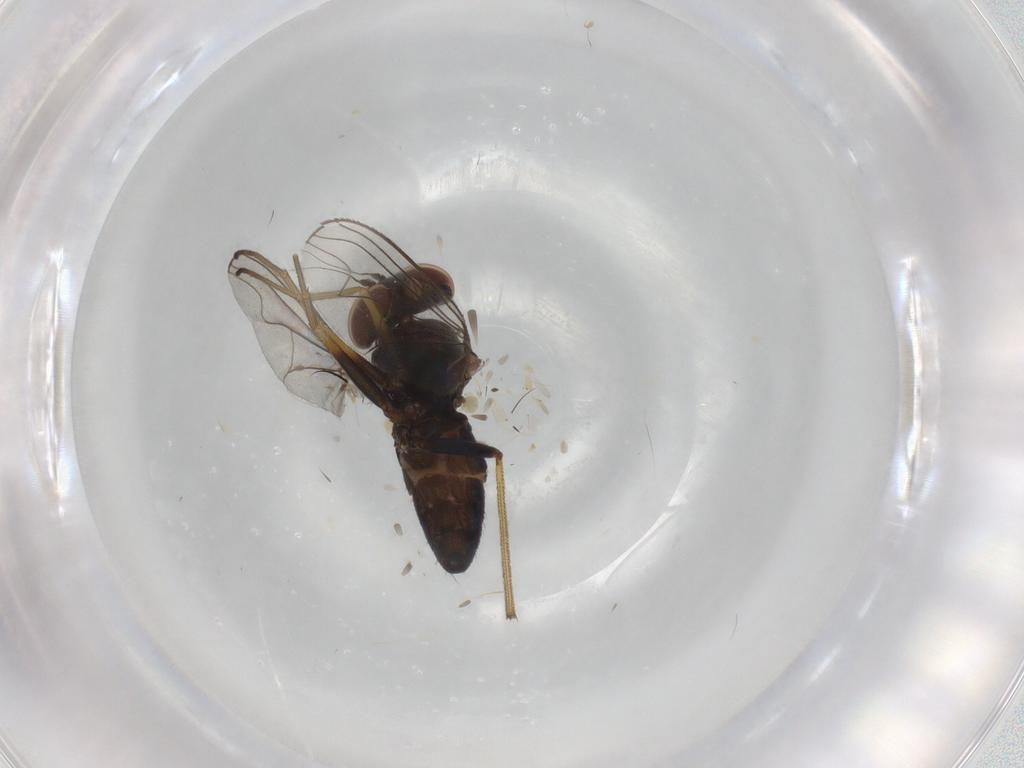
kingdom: Animalia
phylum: Arthropoda
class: Insecta
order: Diptera
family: Dolichopodidae
